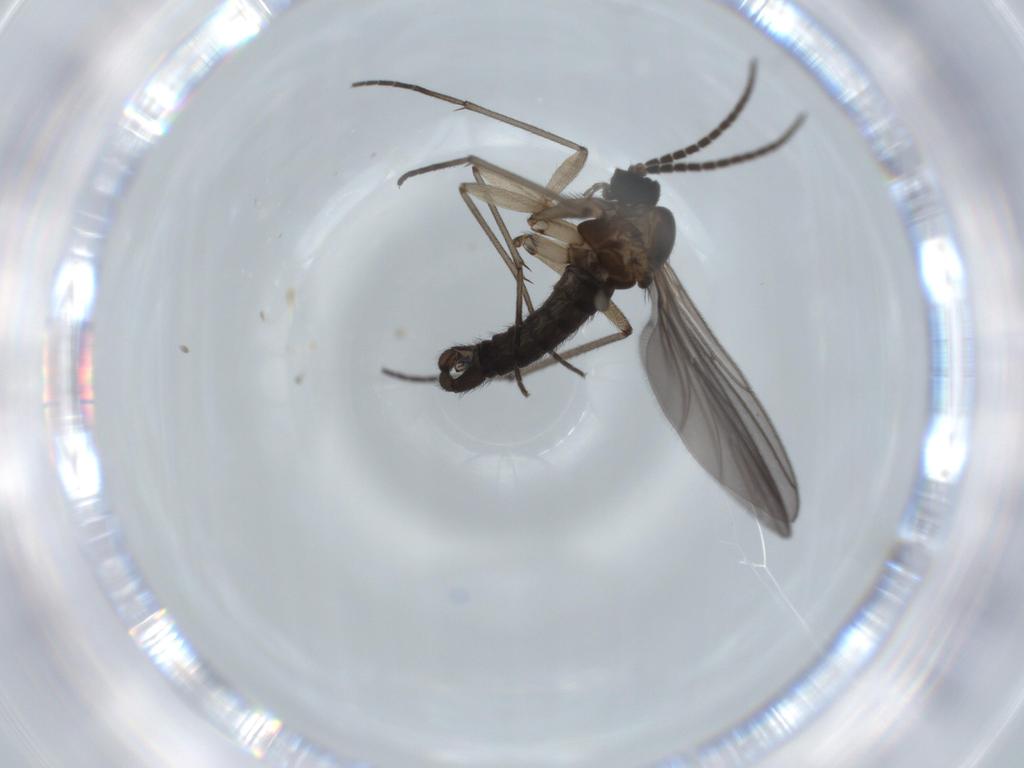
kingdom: Animalia
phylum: Arthropoda
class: Insecta
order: Diptera
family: Sciaridae
